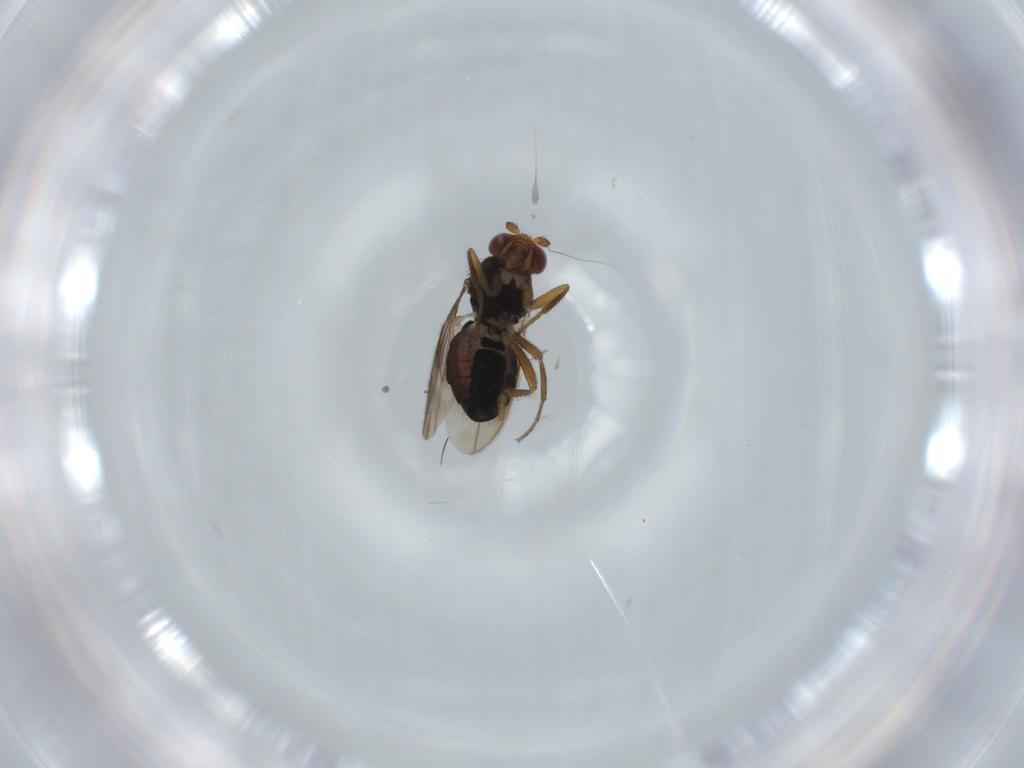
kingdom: Animalia
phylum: Arthropoda
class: Insecta
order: Diptera
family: Sphaeroceridae
